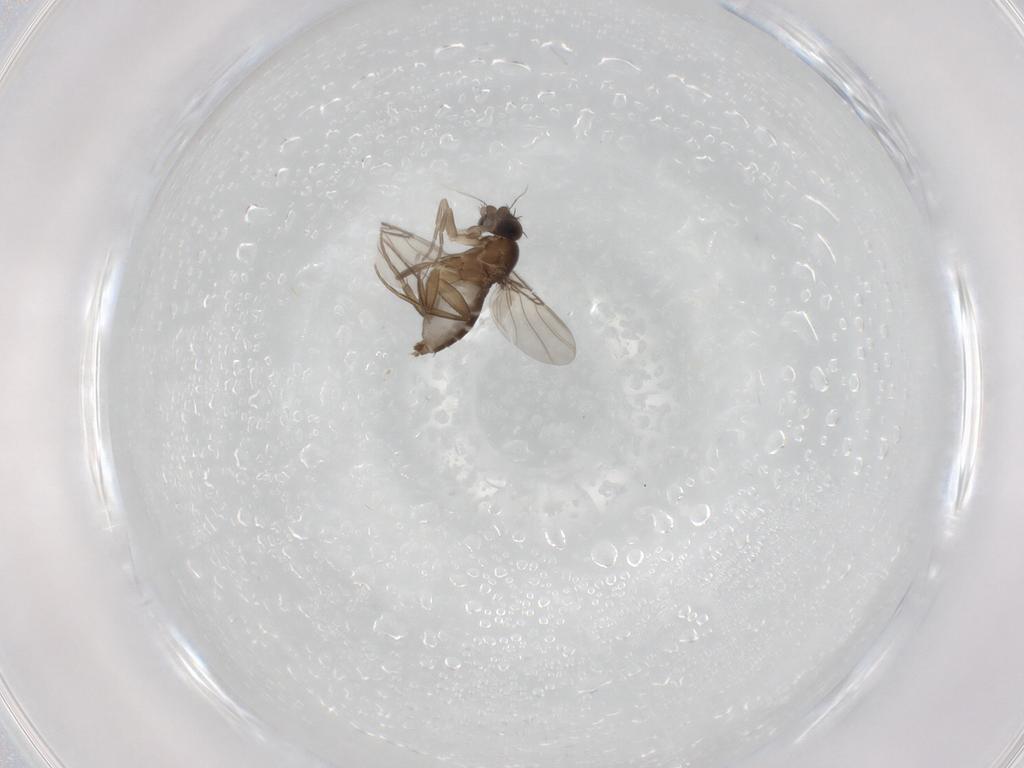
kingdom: Animalia
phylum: Arthropoda
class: Insecta
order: Diptera
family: Phoridae
